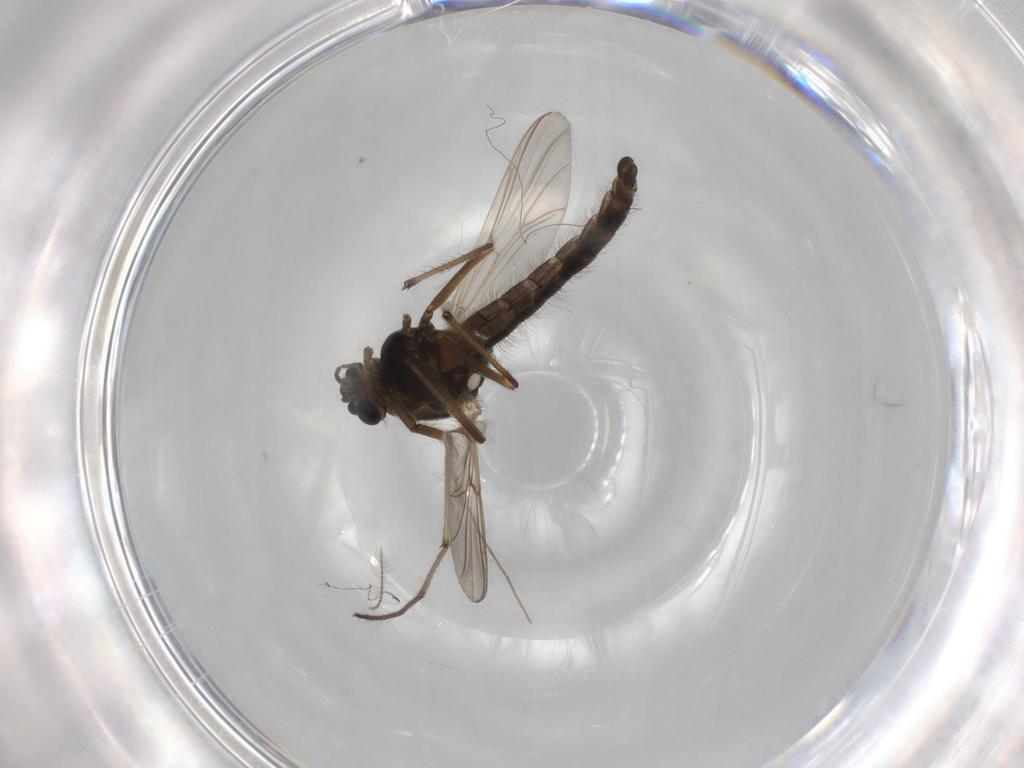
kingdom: Animalia
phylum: Arthropoda
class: Insecta
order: Diptera
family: Chironomidae
